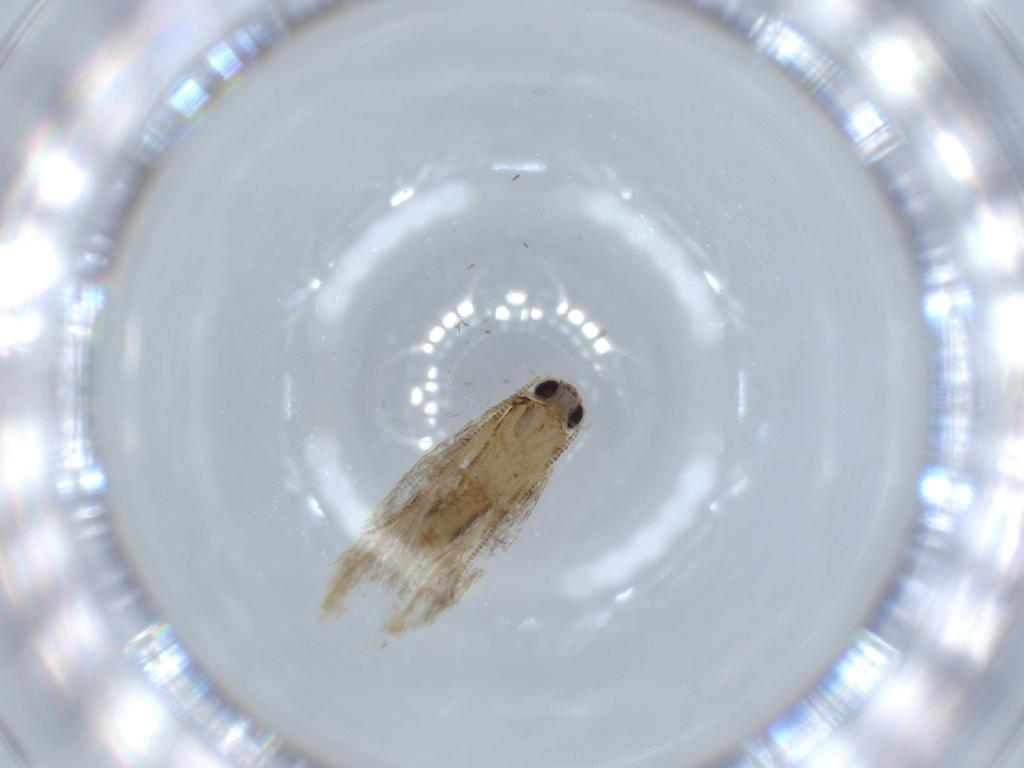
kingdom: Animalia
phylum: Arthropoda
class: Insecta
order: Lepidoptera
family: Tineidae
